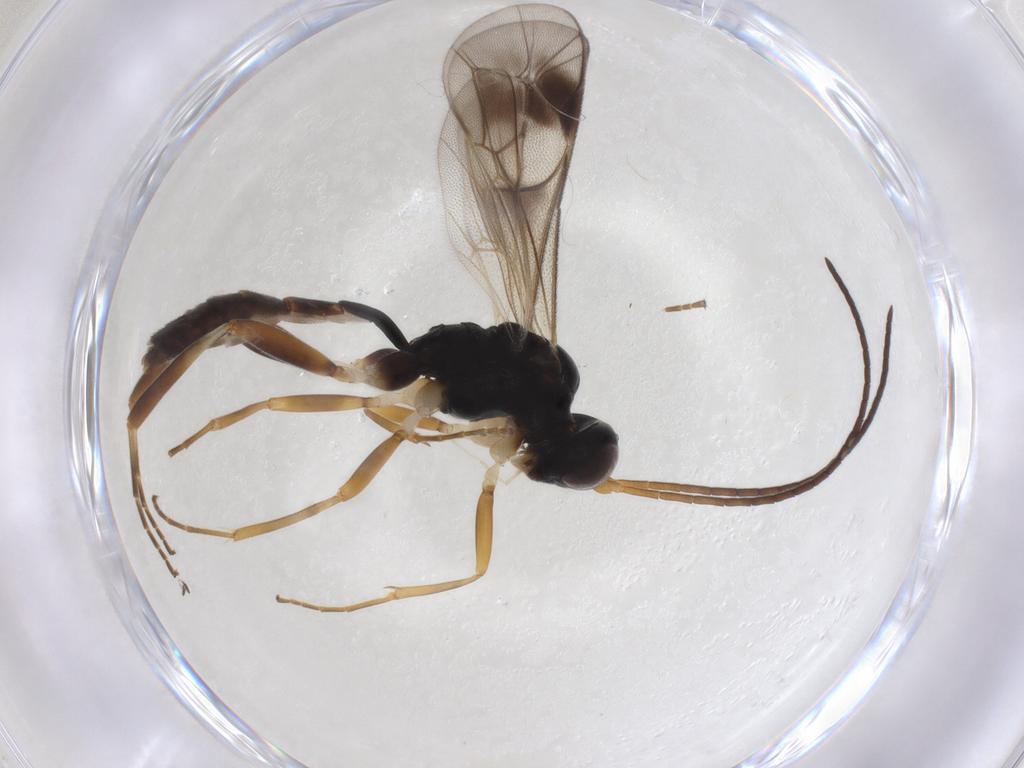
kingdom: Animalia
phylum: Arthropoda
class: Insecta
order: Hymenoptera
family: Ichneumonidae
